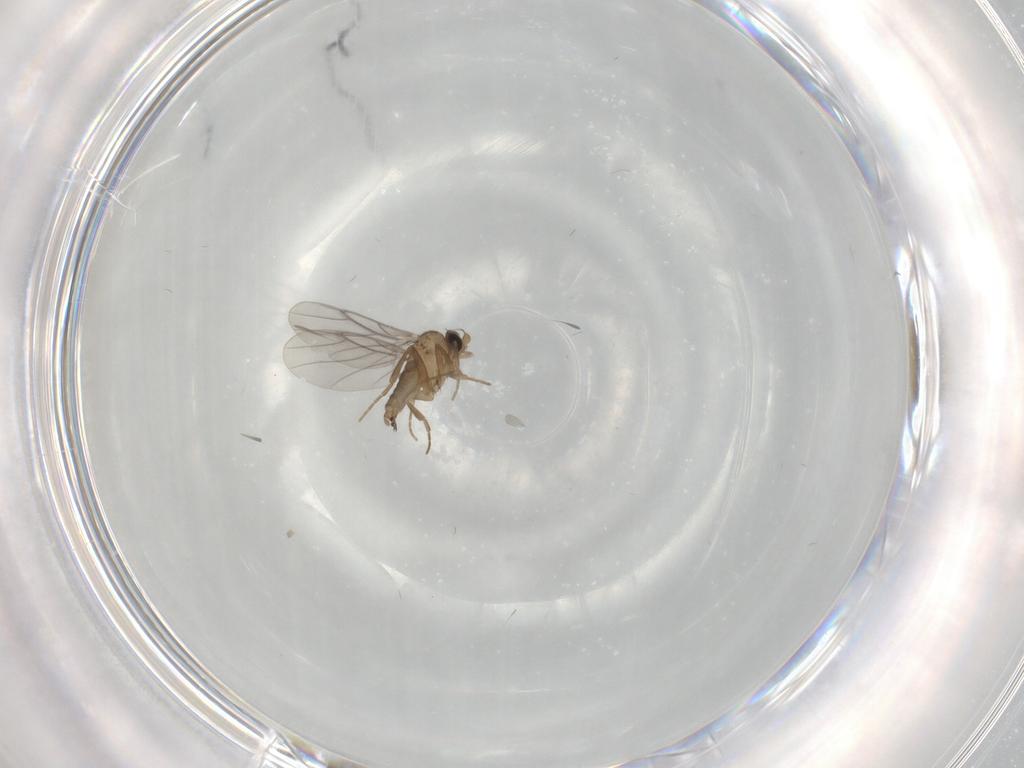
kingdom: Animalia
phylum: Arthropoda
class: Insecta
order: Diptera
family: Cecidomyiidae
